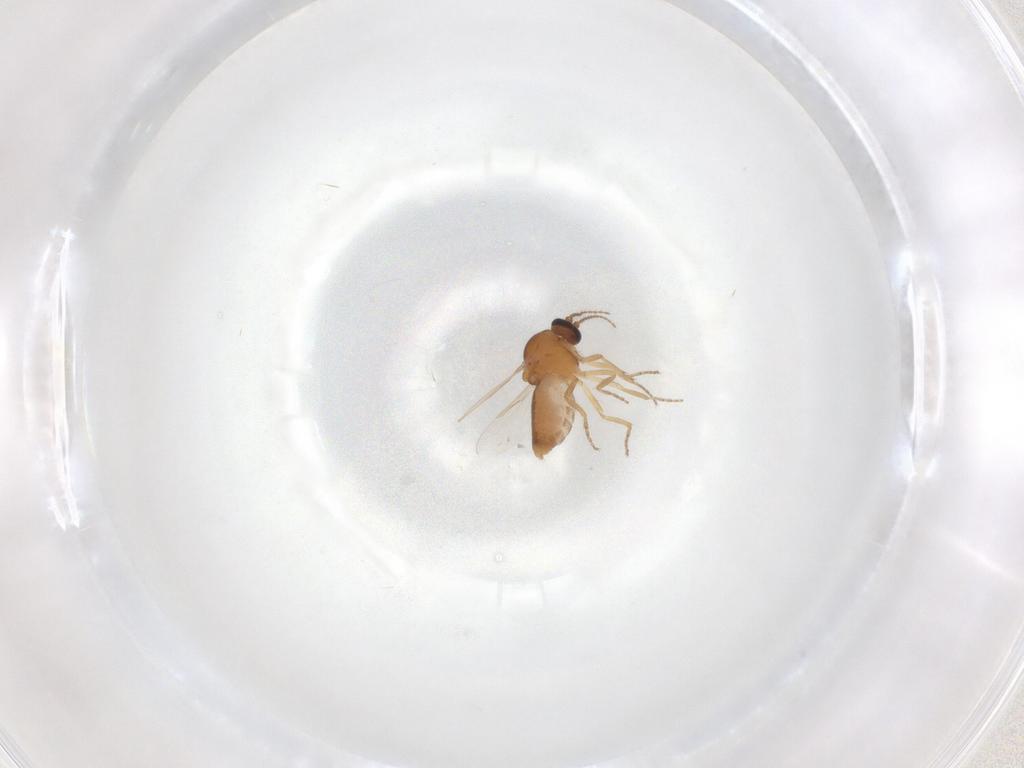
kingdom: Animalia
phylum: Arthropoda
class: Insecta
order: Diptera
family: Ceratopogonidae
